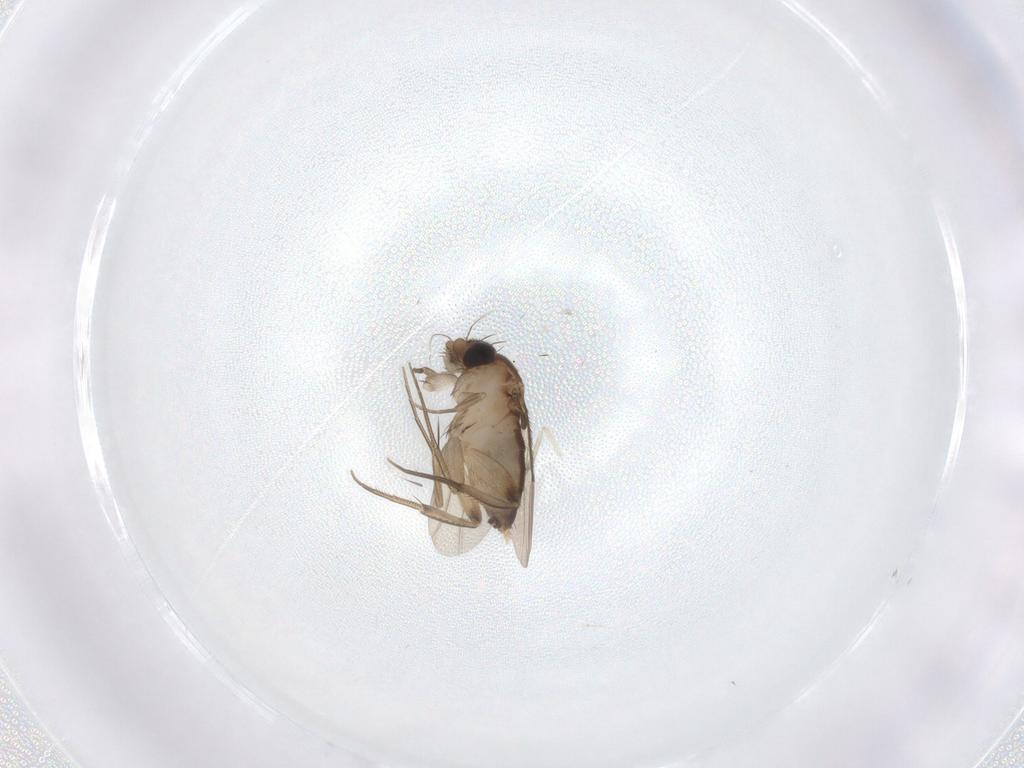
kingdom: Animalia
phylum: Arthropoda
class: Insecta
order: Diptera
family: Phoridae
